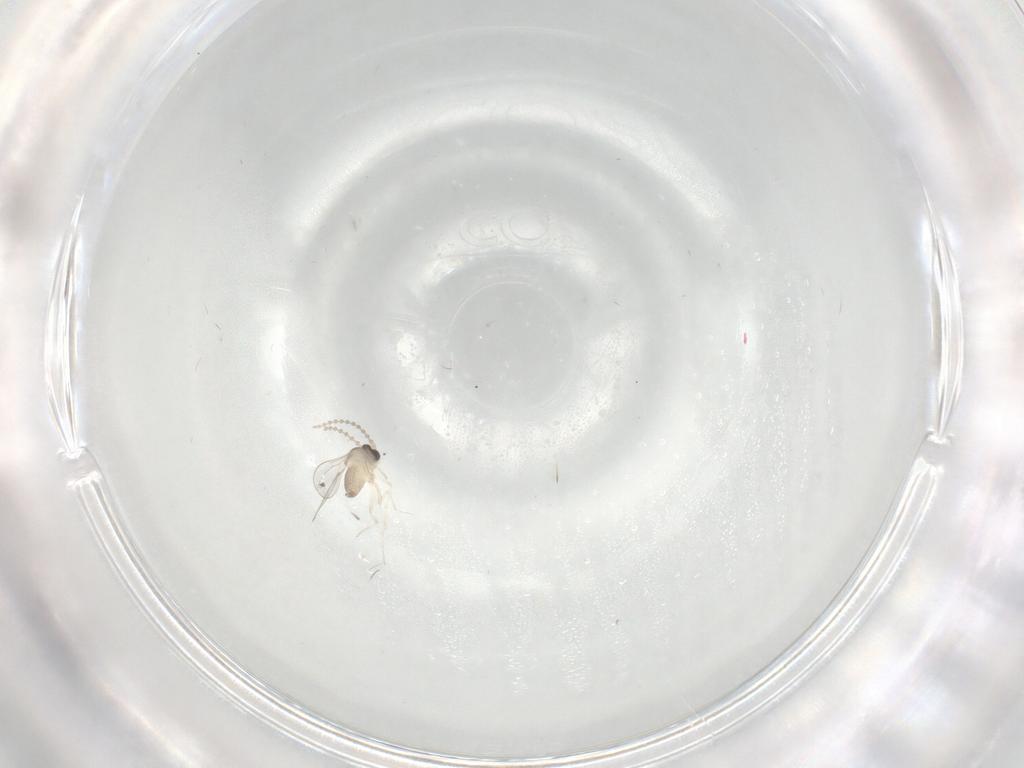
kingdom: Animalia
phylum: Arthropoda
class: Insecta
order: Diptera
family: Cecidomyiidae
